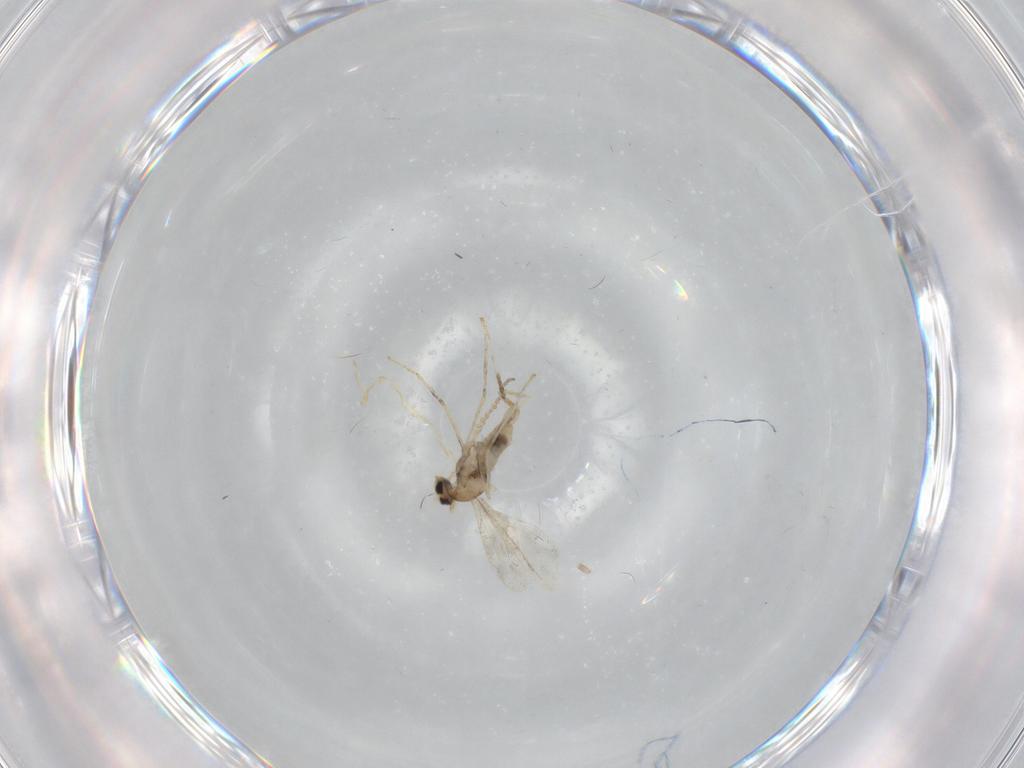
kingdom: Animalia
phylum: Arthropoda
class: Insecta
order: Diptera
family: Cecidomyiidae
